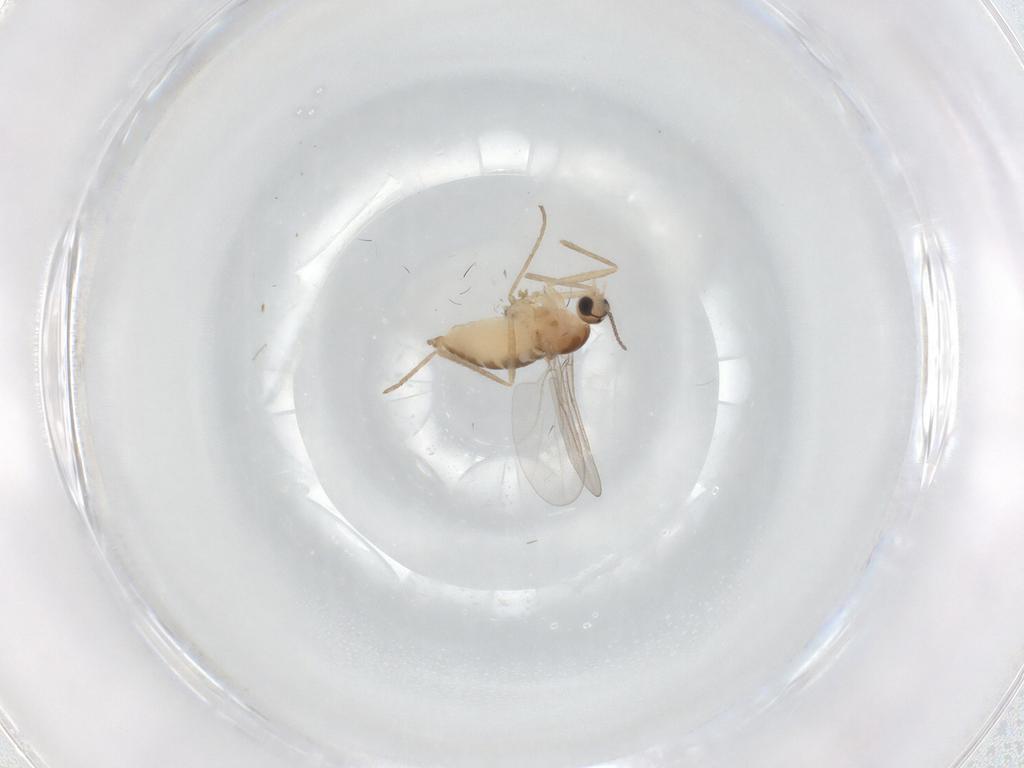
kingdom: Animalia
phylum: Arthropoda
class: Insecta
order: Diptera
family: Cecidomyiidae
